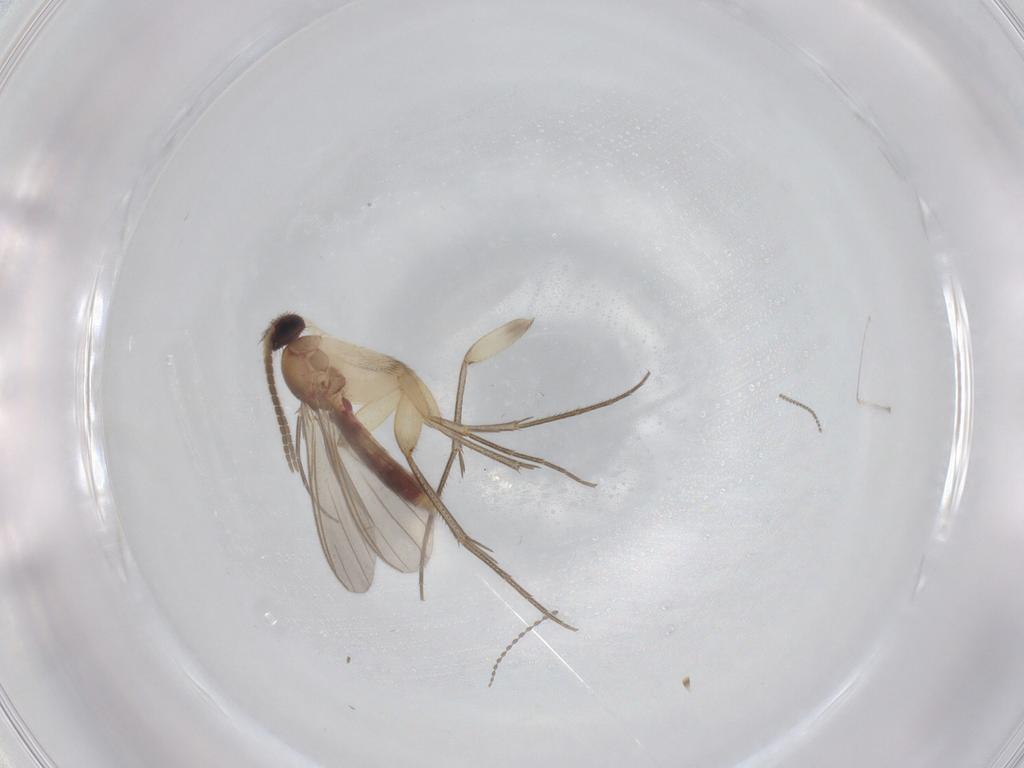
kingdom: Animalia
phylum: Arthropoda
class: Insecta
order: Diptera
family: Mycetophilidae
